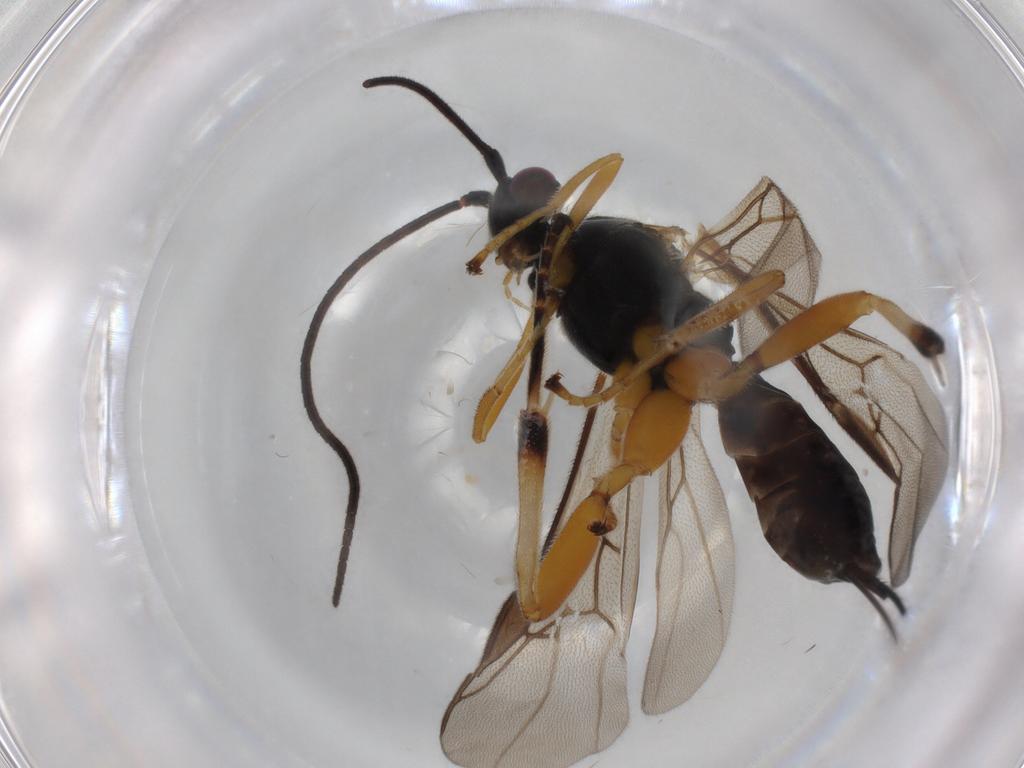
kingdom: Animalia
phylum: Arthropoda
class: Insecta
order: Hymenoptera
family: Braconidae
